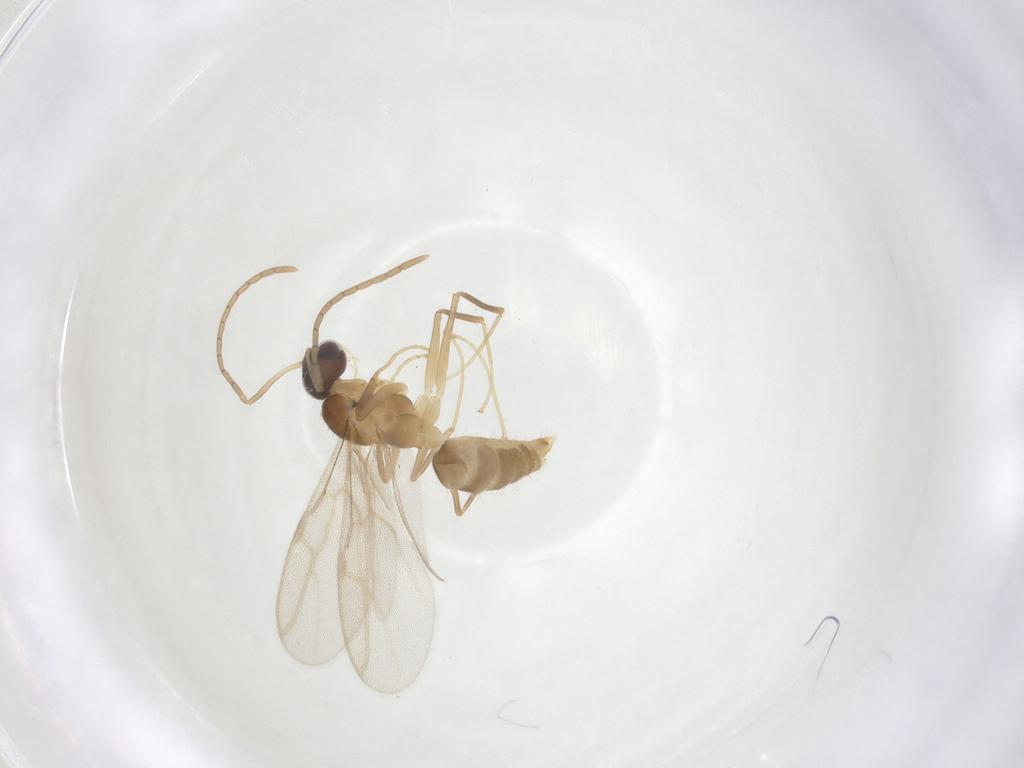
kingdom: Animalia
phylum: Arthropoda
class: Insecta
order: Hymenoptera
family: Formicidae
